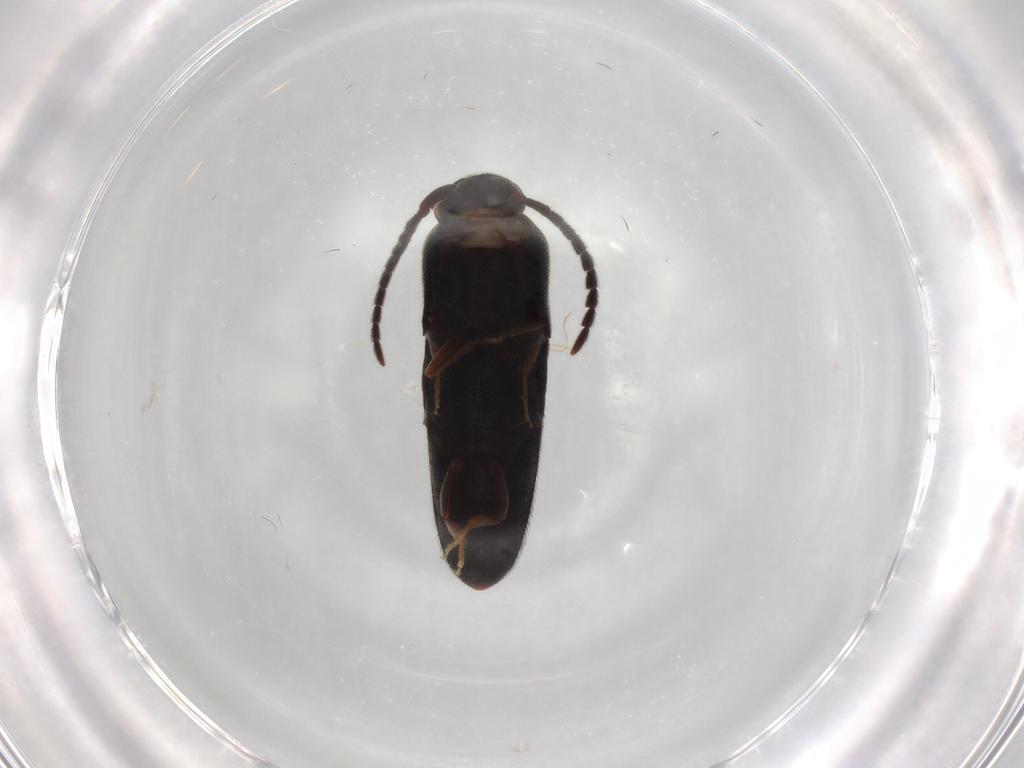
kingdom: Animalia
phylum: Arthropoda
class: Insecta
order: Coleoptera
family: Eucnemidae
